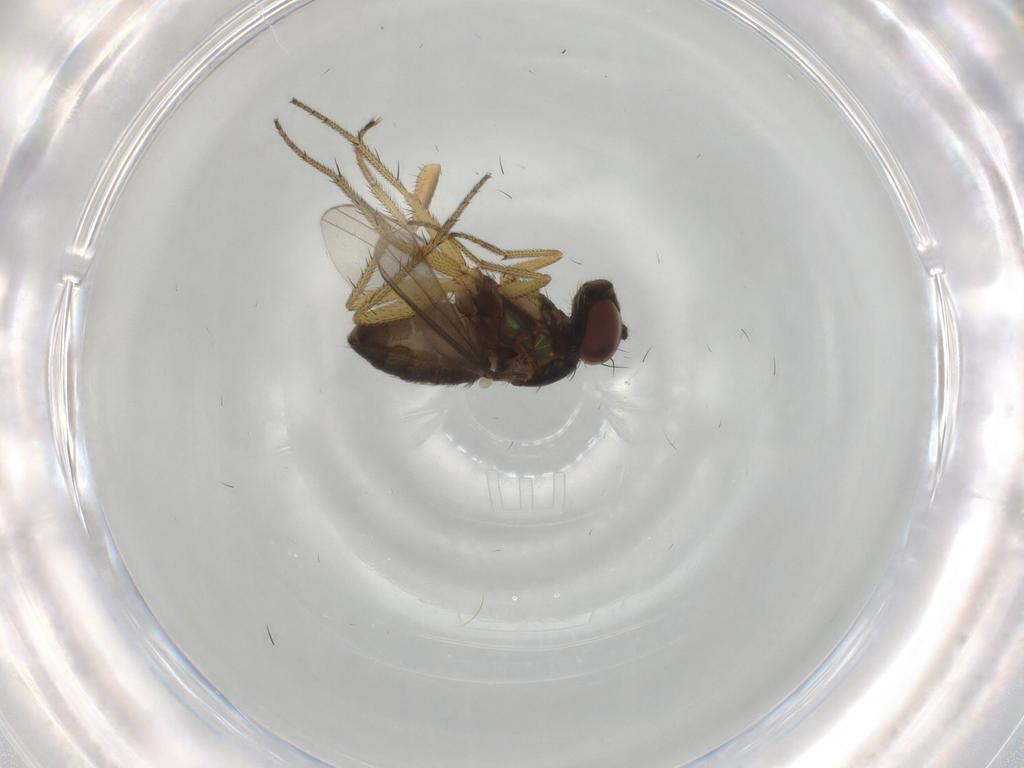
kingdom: Animalia
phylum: Arthropoda
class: Insecta
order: Diptera
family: Dolichopodidae
